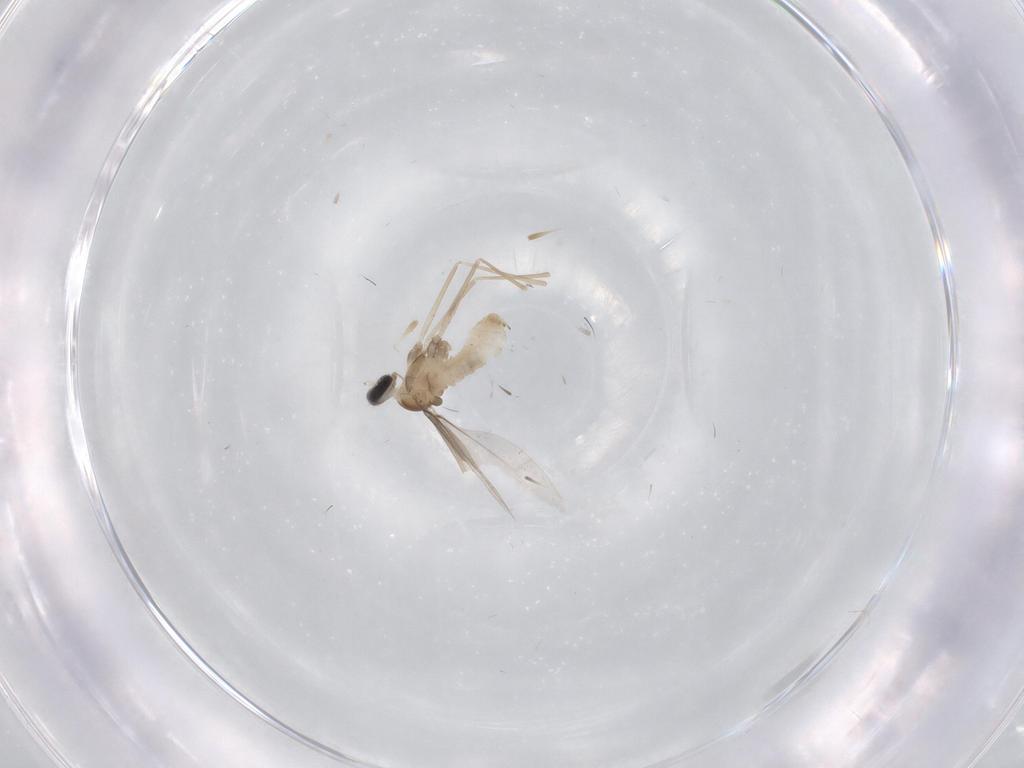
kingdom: Animalia
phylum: Arthropoda
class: Insecta
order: Diptera
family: Cecidomyiidae
